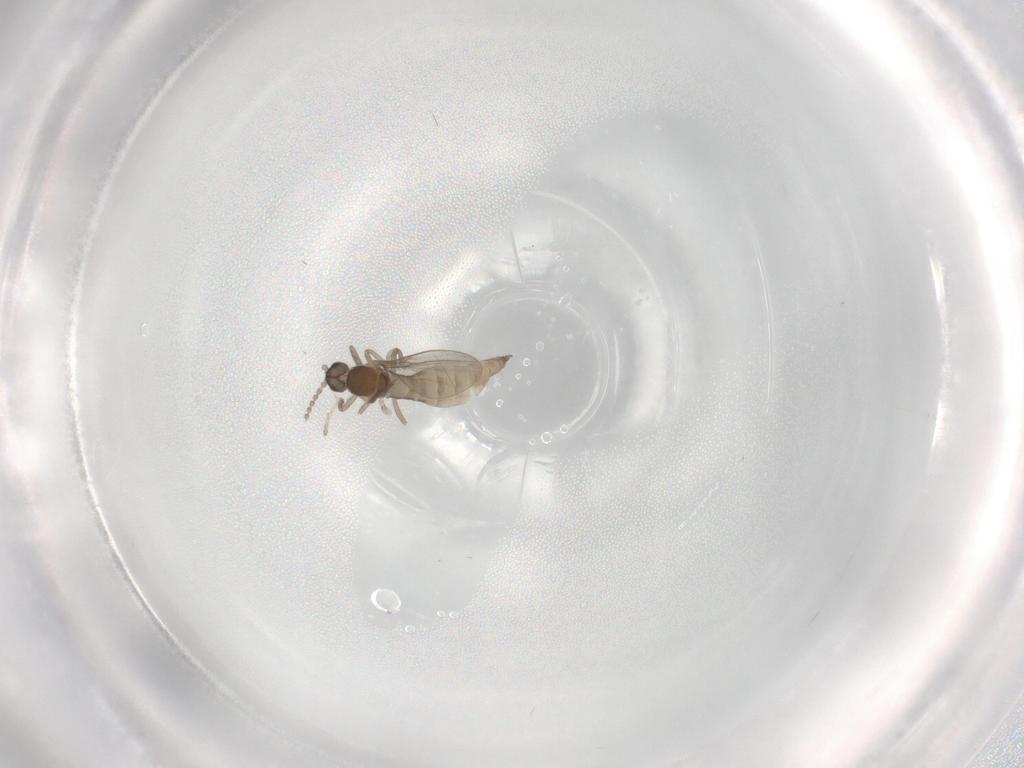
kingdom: Animalia
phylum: Arthropoda
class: Insecta
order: Diptera
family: Cecidomyiidae
